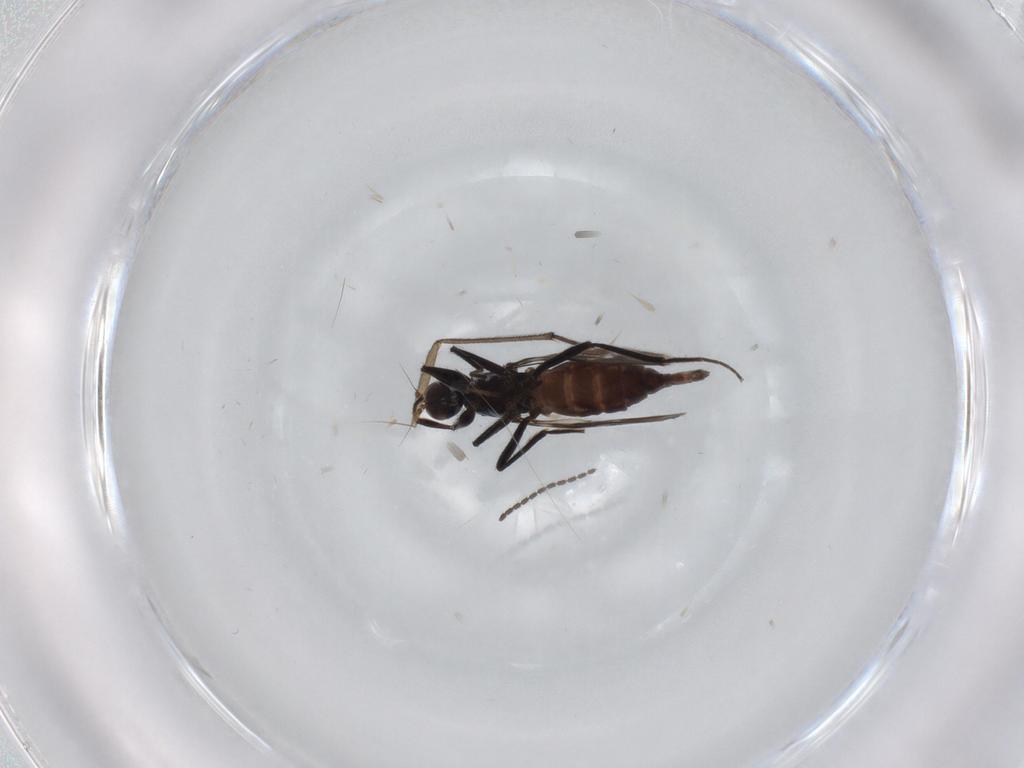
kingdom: Animalia
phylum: Arthropoda
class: Insecta
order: Diptera
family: Hybotidae
